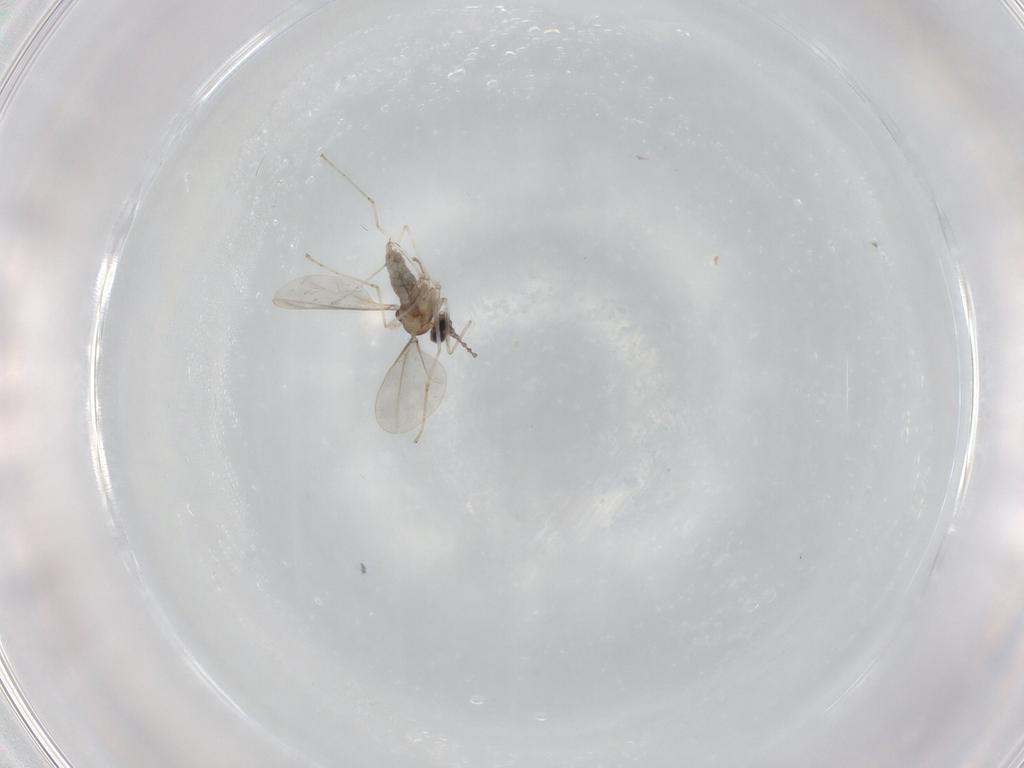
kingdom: Animalia
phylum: Arthropoda
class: Insecta
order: Diptera
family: Cecidomyiidae
